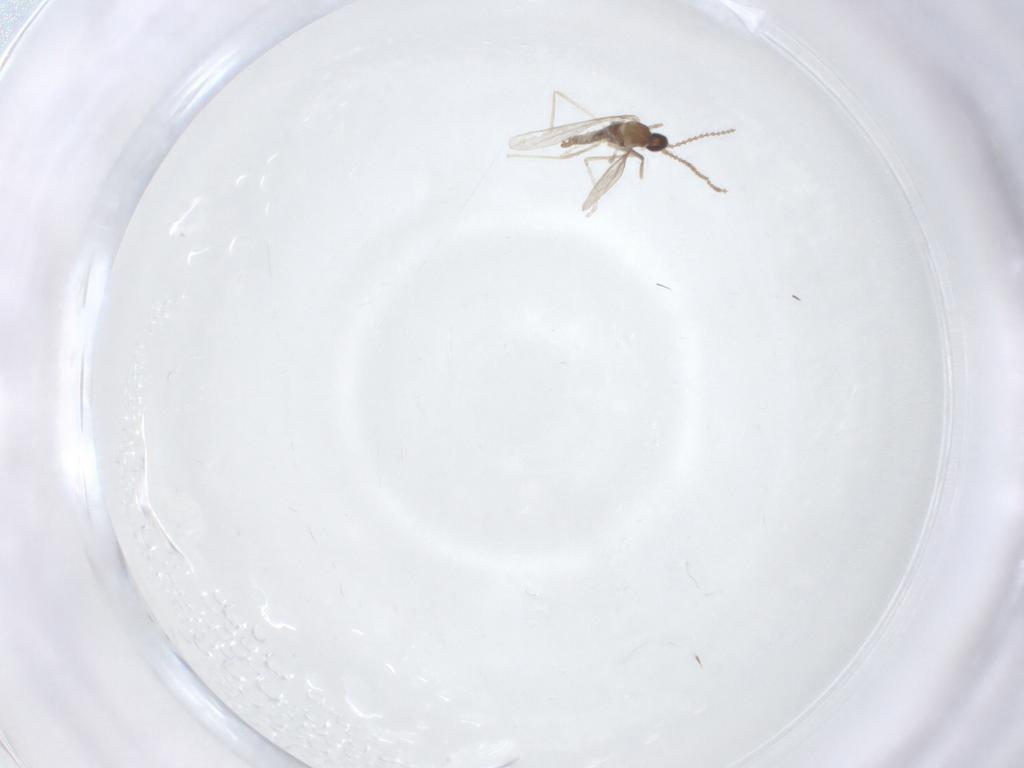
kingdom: Animalia
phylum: Arthropoda
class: Insecta
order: Diptera
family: Cecidomyiidae
